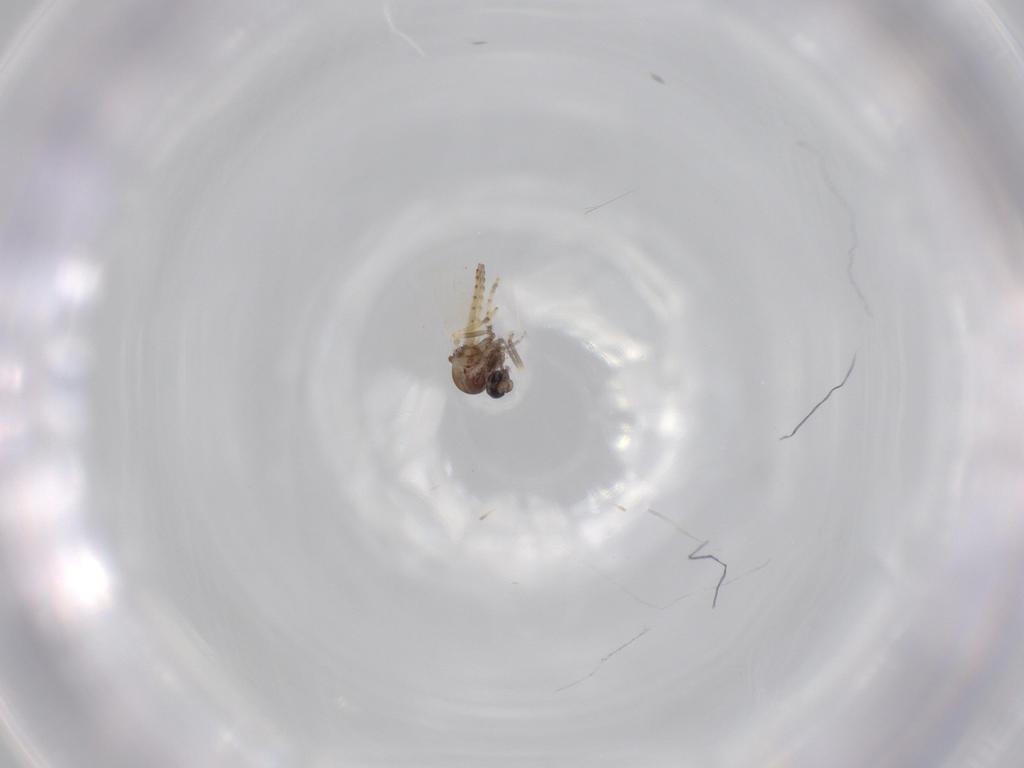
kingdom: Animalia
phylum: Arthropoda
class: Insecta
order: Diptera
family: Ceratopogonidae
